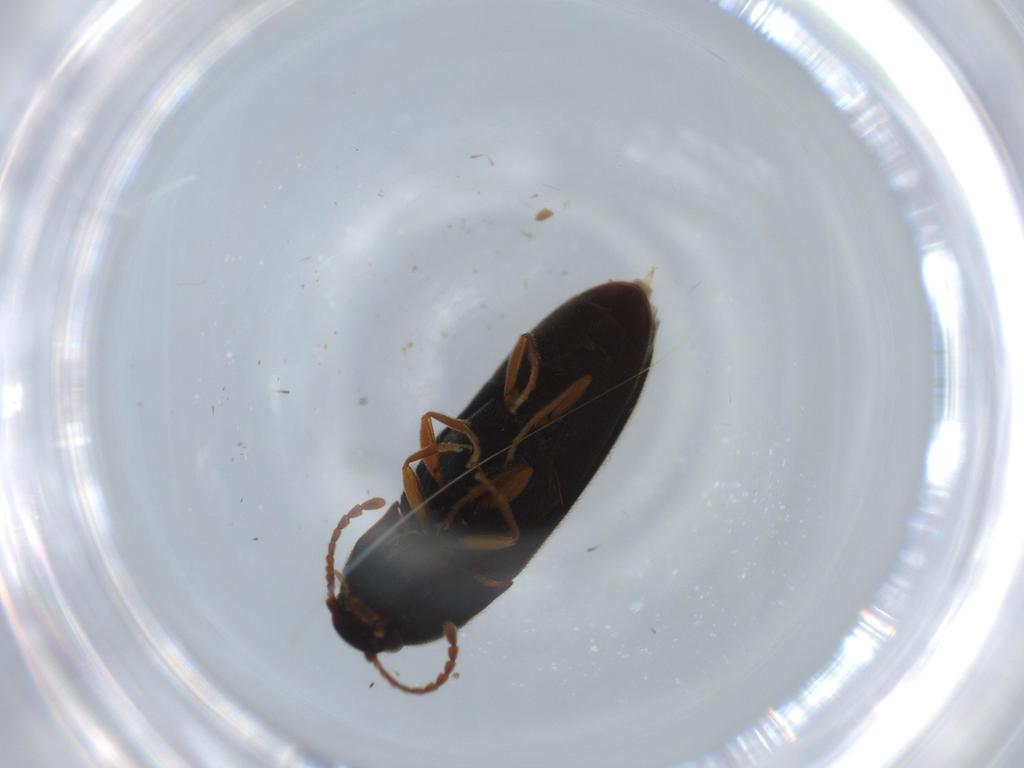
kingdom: Animalia
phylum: Arthropoda
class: Insecta
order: Coleoptera
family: Elateridae
